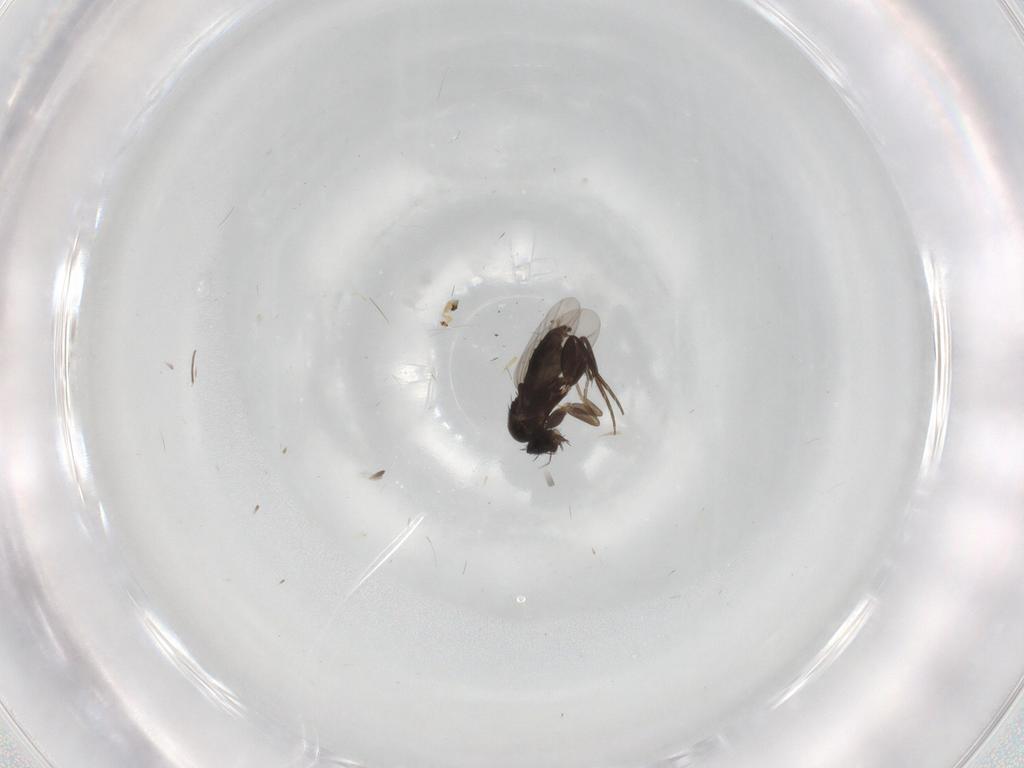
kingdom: Animalia
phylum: Arthropoda
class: Insecta
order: Diptera
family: Phoridae
